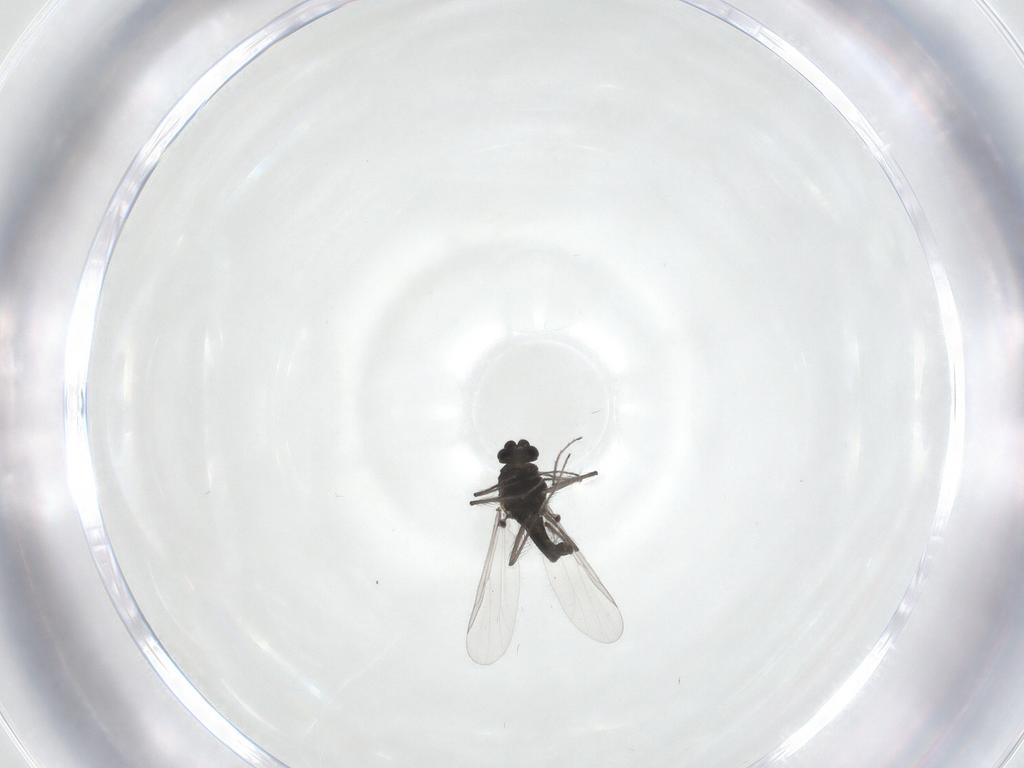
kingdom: Animalia
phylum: Arthropoda
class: Insecta
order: Diptera
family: Chironomidae
